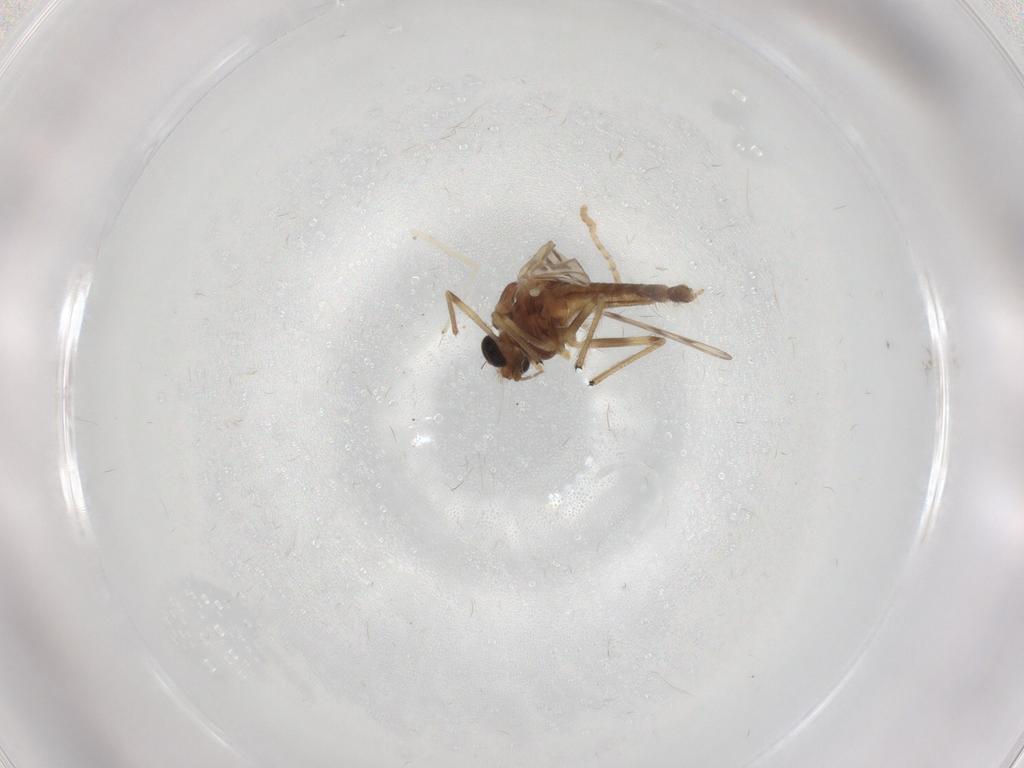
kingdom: Animalia
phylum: Arthropoda
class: Insecta
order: Diptera
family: Chironomidae
